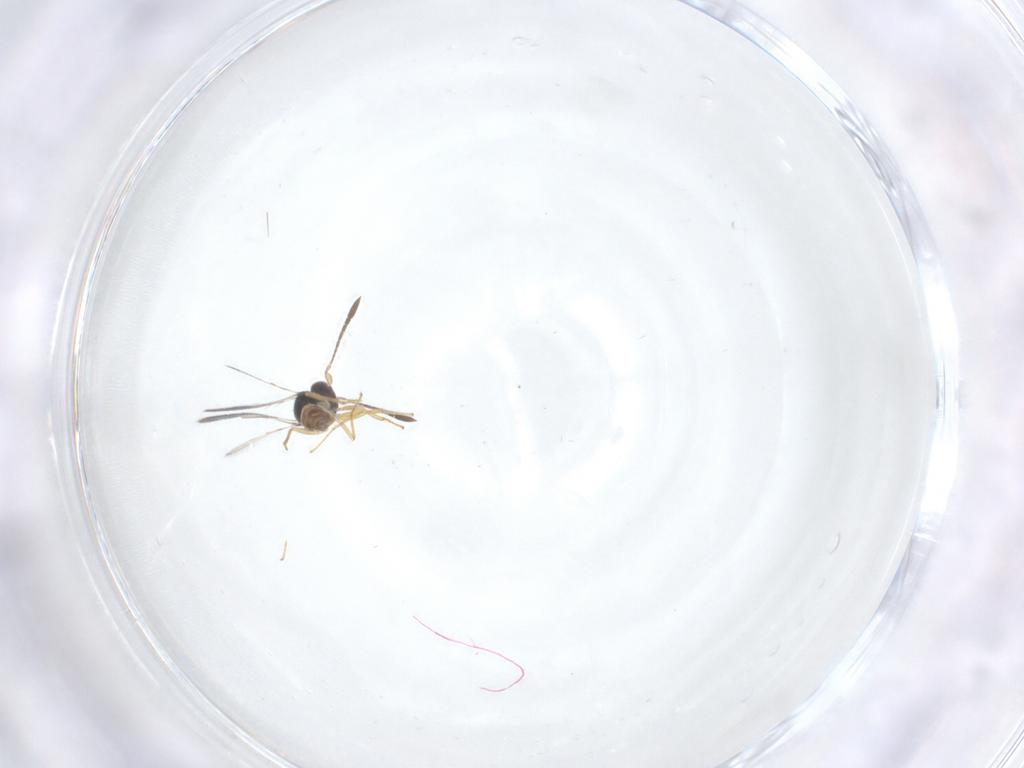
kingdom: Animalia
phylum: Arthropoda
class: Insecta
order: Hymenoptera
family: Mymaridae
